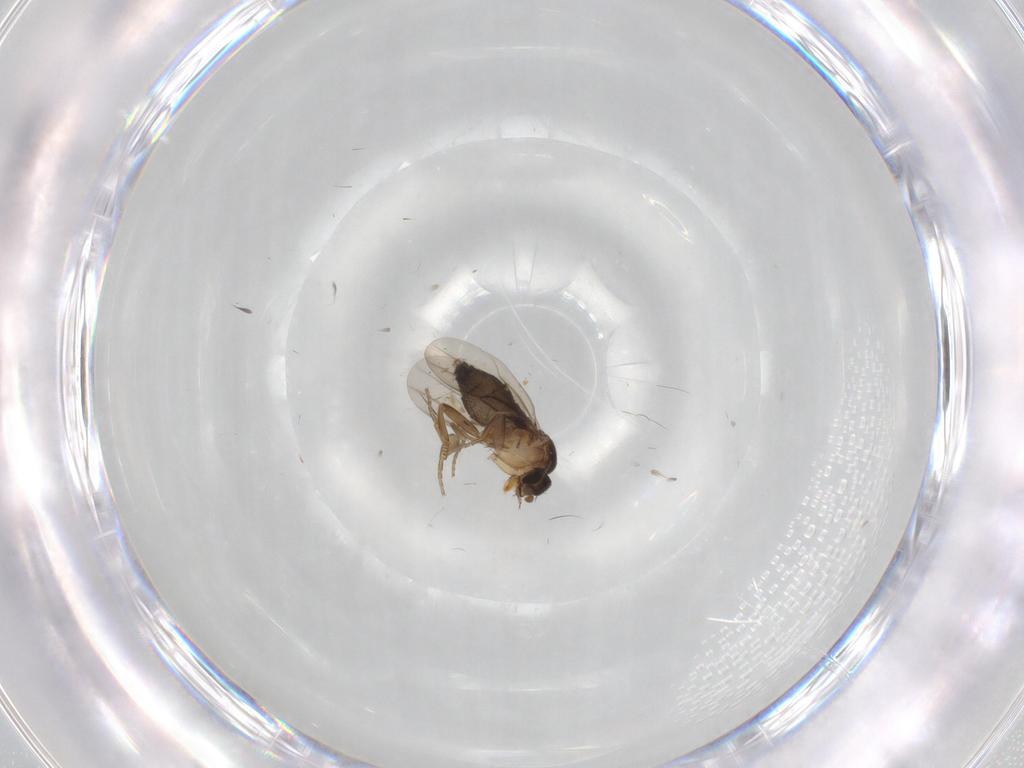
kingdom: Animalia
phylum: Arthropoda
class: Insecta
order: Diptera
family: Phoridae
